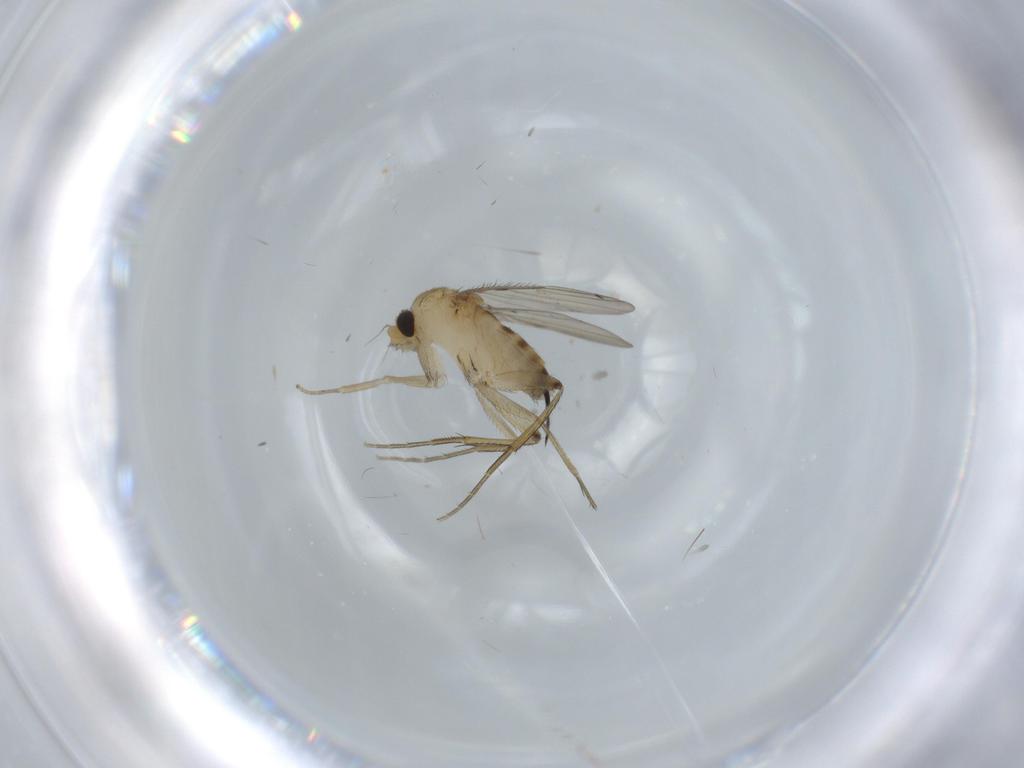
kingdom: Animalia
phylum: Arthropoda
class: Insecta
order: Diptera
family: Phoridae
